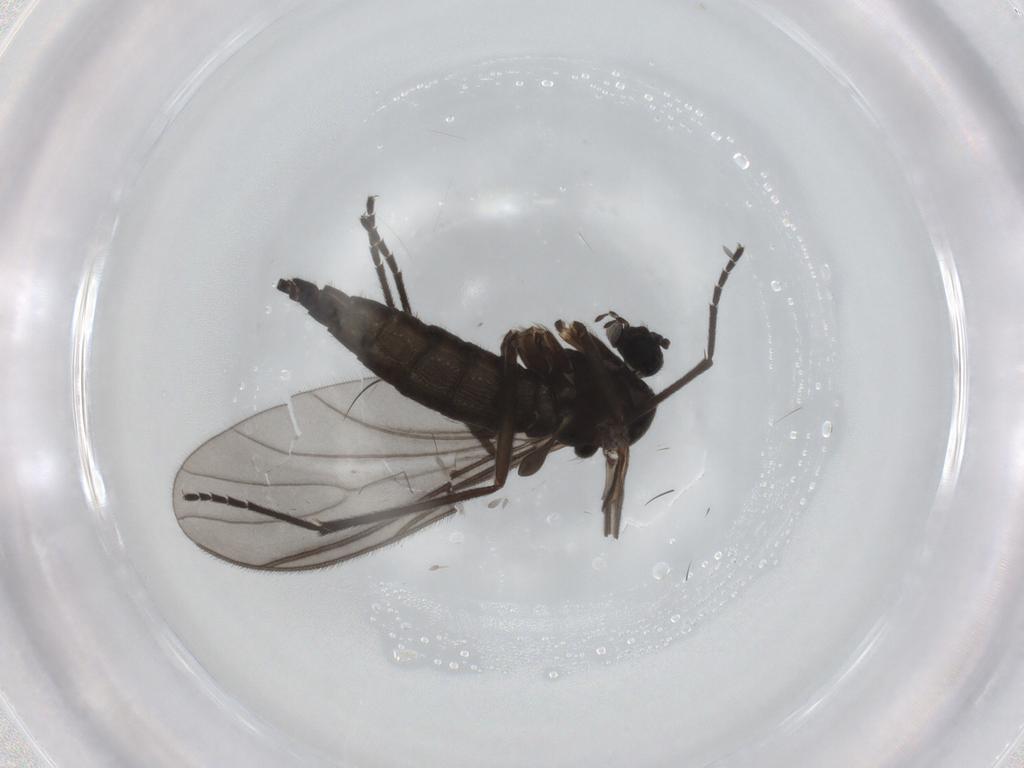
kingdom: Animalia
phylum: Arthropoda
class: Insecta
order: Diptera
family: Sciaridae
